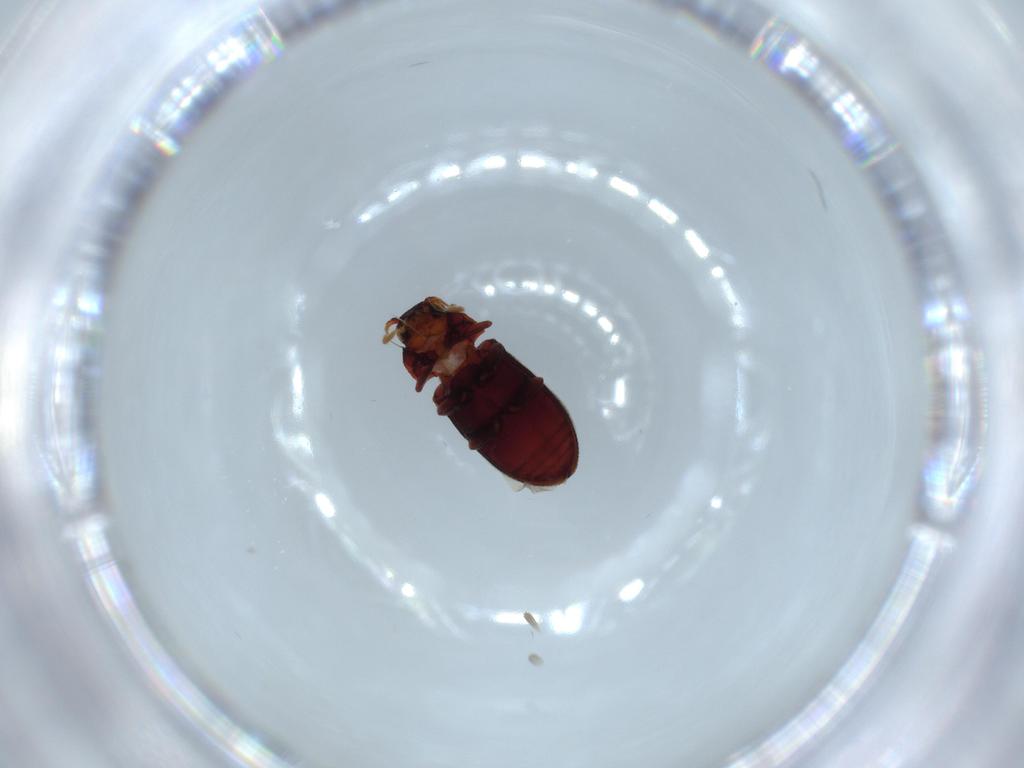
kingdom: Animalia
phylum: Arthropoda
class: Insecta
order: Coleoptera
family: Anobiidae
